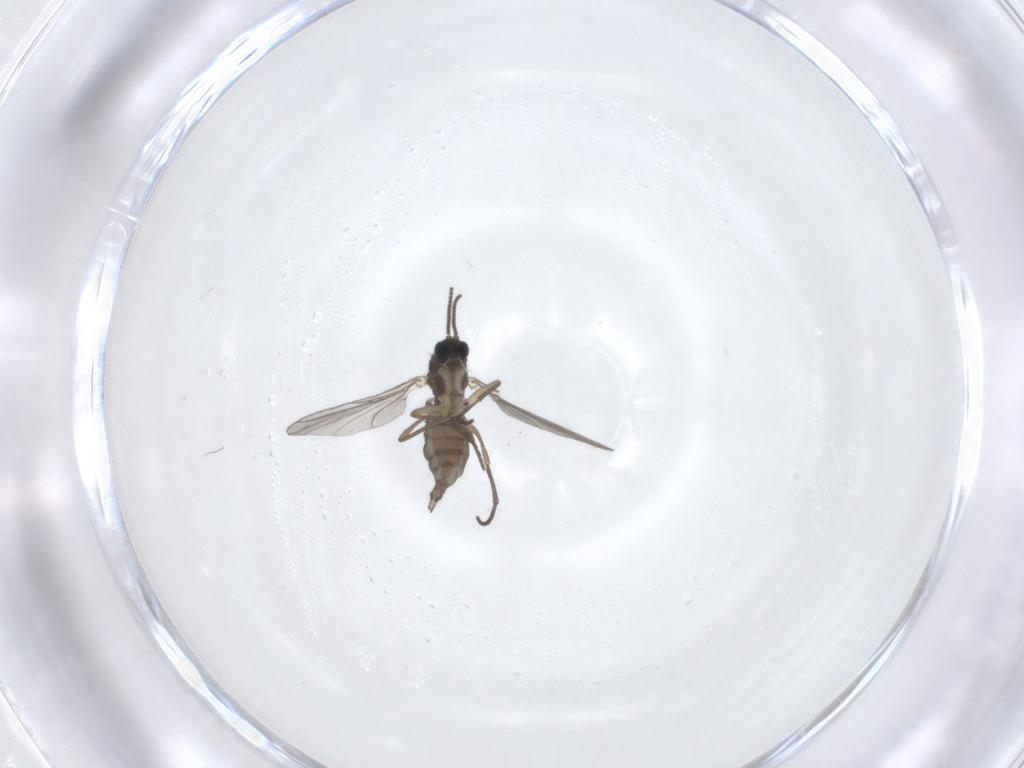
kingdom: Animalia
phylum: Arthropoda
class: Insecta
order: Diptera
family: Sciaridae
